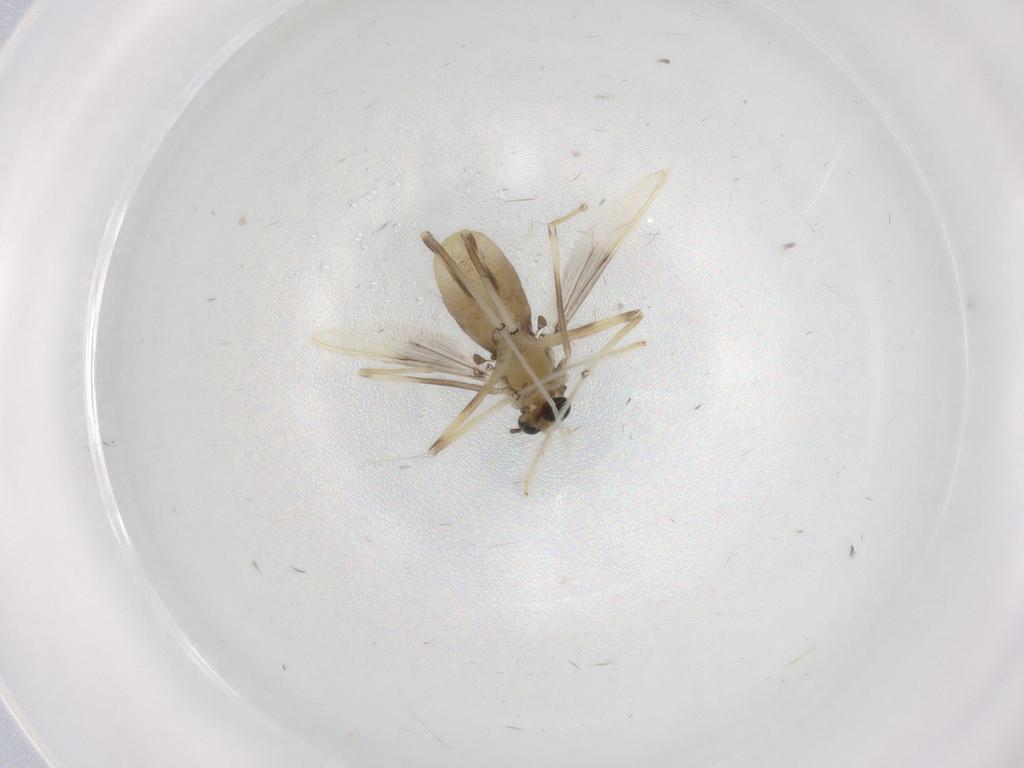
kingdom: Animalia
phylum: Arthropoda
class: Insecta
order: Diptera
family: Chironomidae
